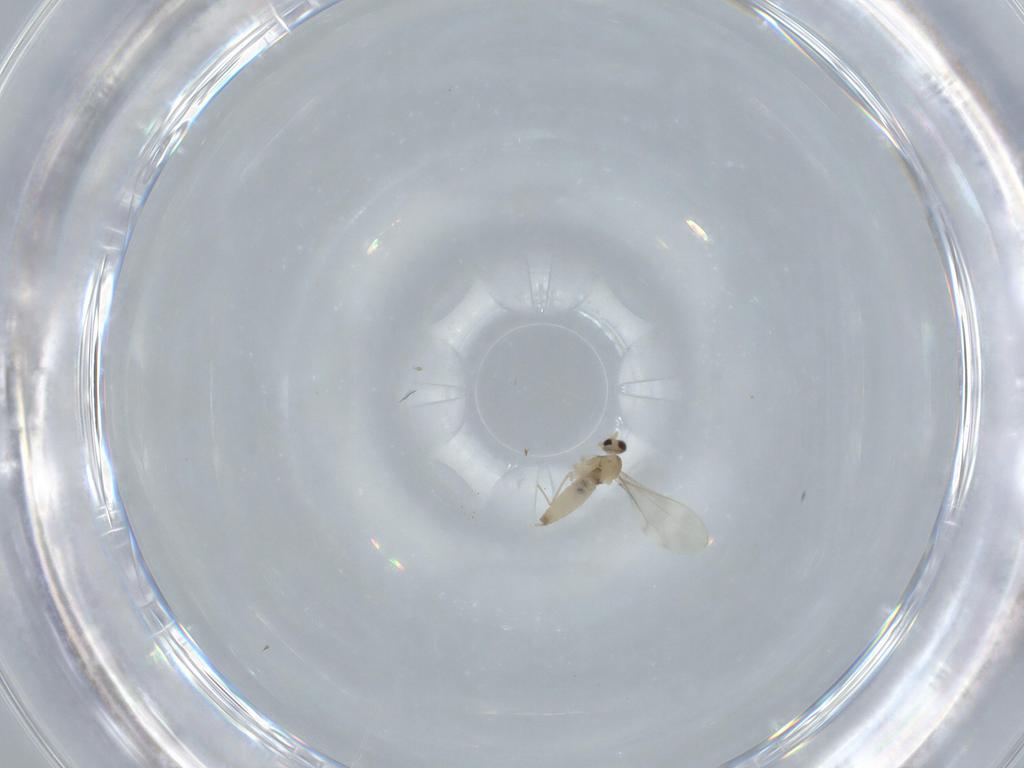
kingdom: Animalia
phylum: Arthropoda
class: Insecta
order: Diptera
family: Cecidomyiidae
